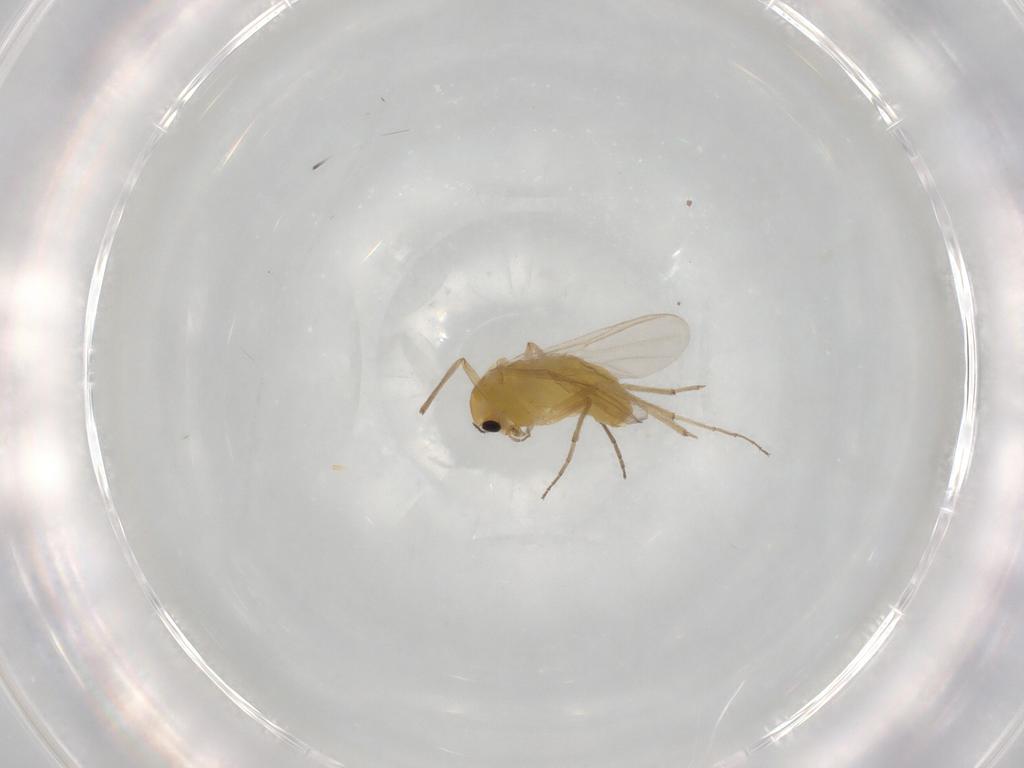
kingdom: Animalia
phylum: Arthropoda
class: Insecta
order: Diptera
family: Chironomidae
